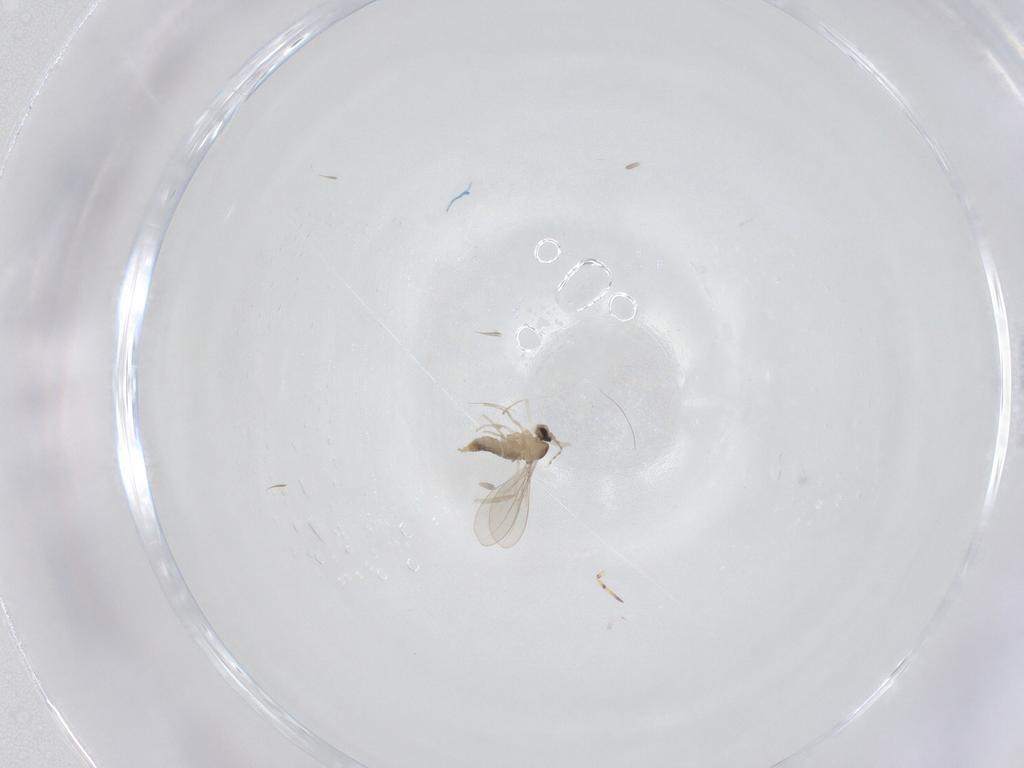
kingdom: Animalia
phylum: Arthropoda
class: Insecta
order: Diptera
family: Cecidomyiidae
